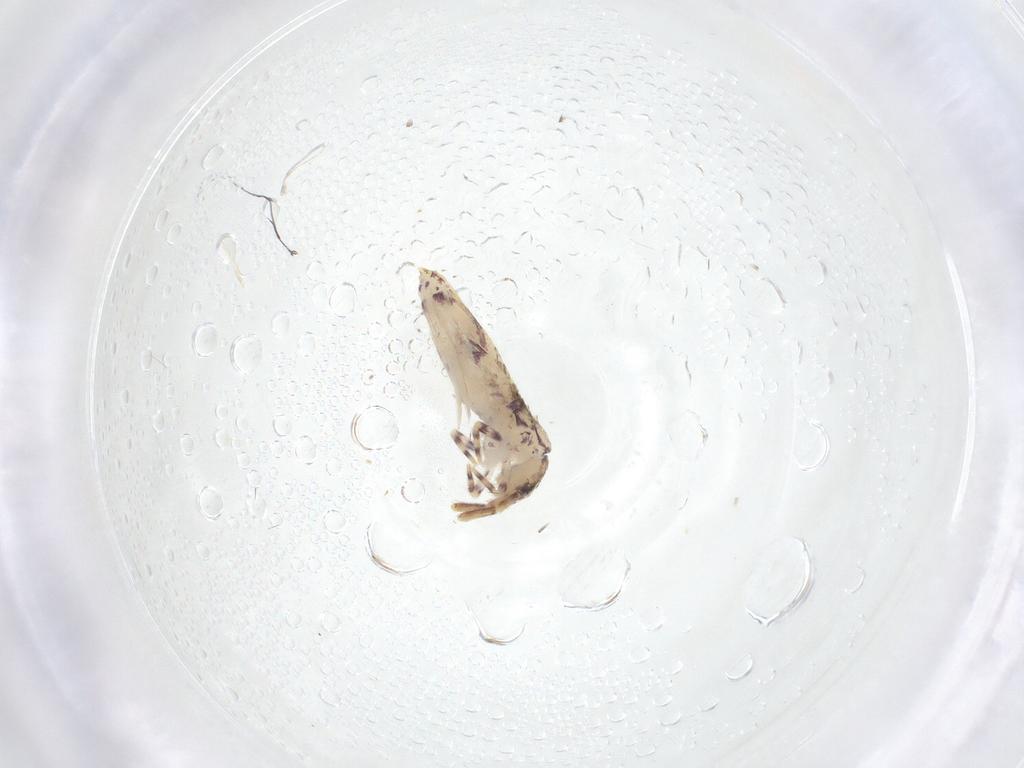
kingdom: Animalia
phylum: Arthropoda
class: Collembola
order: Entomobryomorpha
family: Entomobryidae
